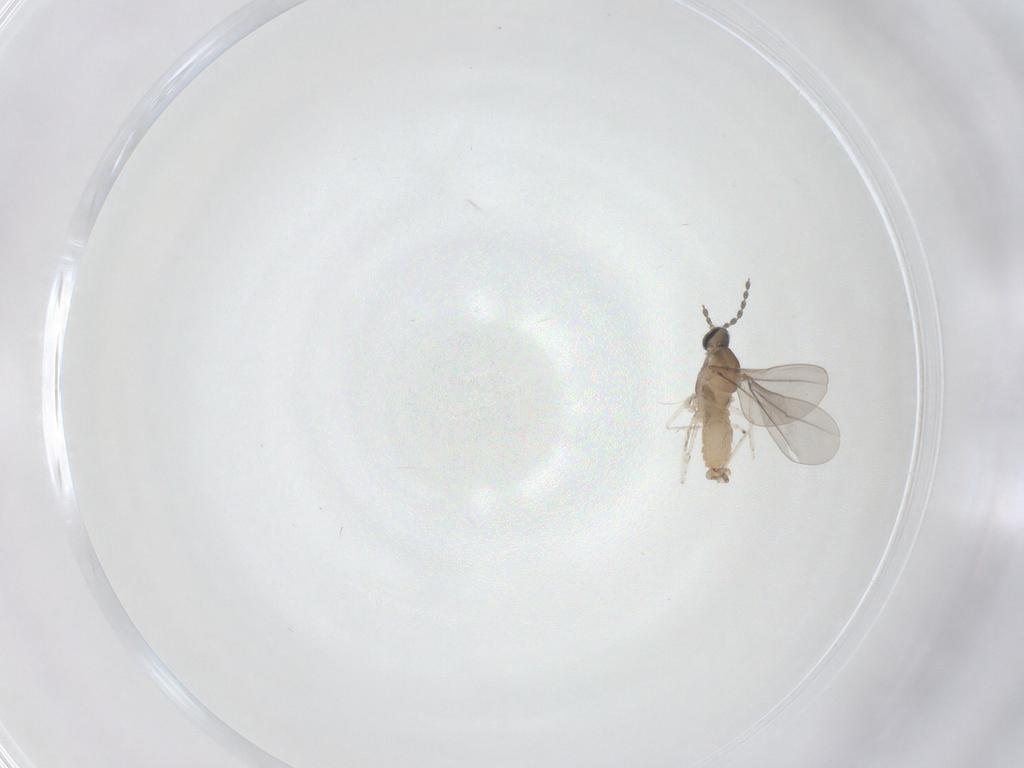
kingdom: Animalia
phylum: Arthropoda
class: Insecta
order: Diptera
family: Cecidomyiidae
